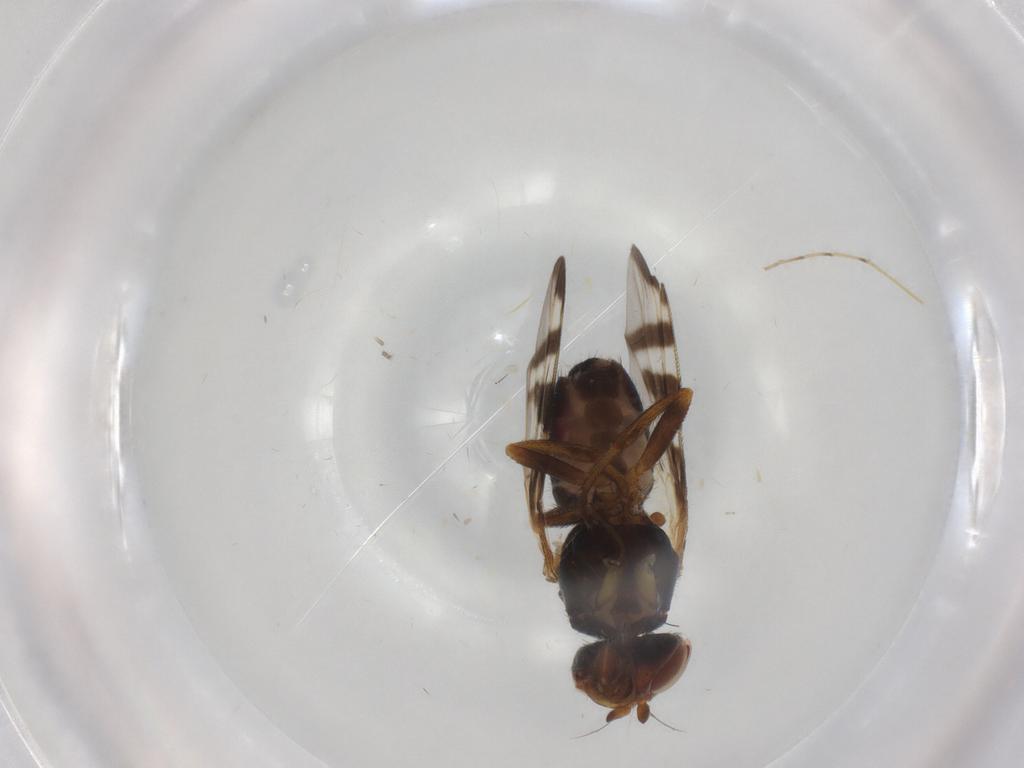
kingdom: Animalia
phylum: Arthropoda
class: Insecta
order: Diptera
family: Platystomatidae
